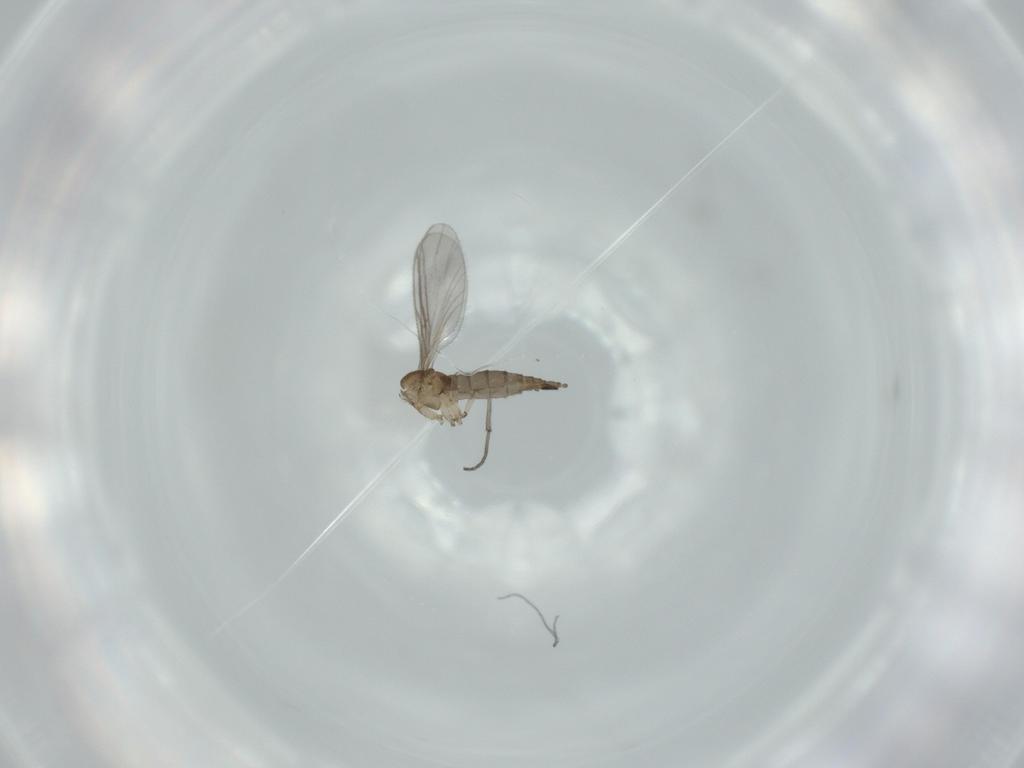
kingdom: Animalia
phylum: Arthropoda
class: Insecta
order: Diptera
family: Sciaridae
